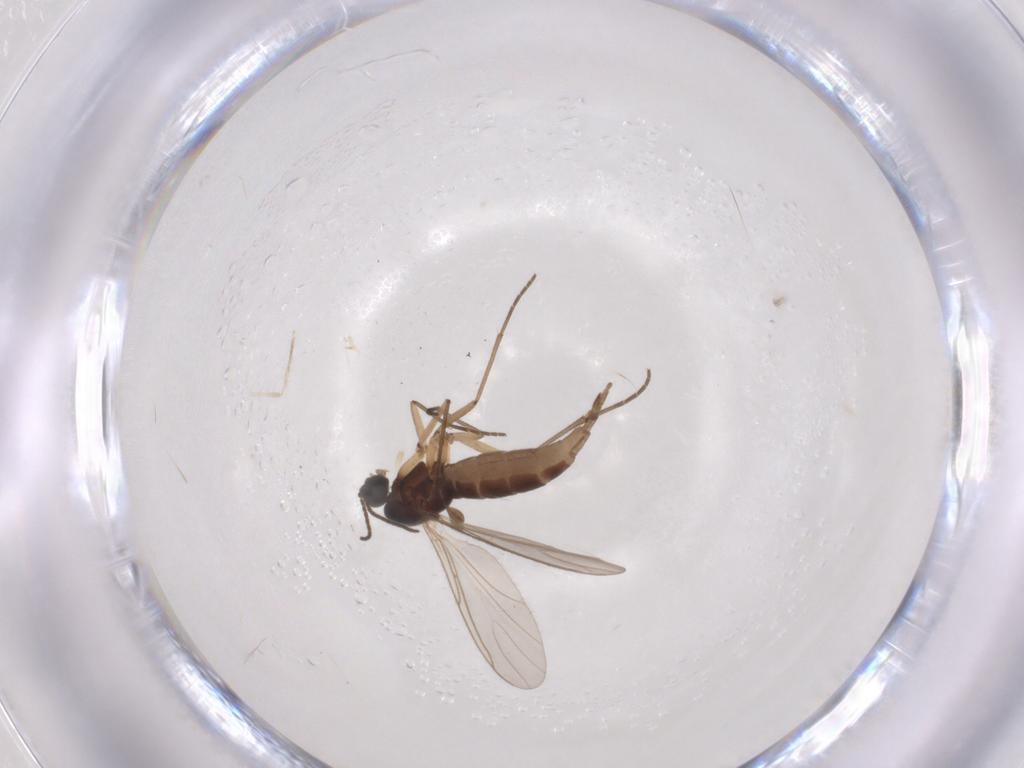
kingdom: Animalia
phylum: Arthropoda
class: Insecta
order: Diptera
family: Sciaridae
